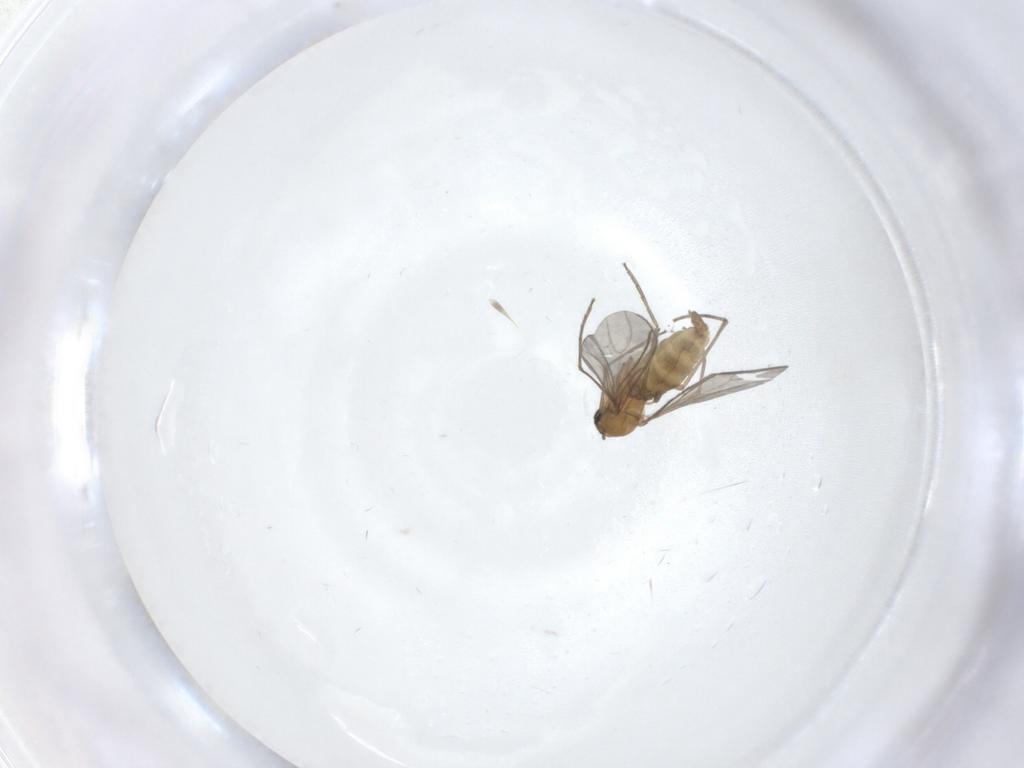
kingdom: Animalia
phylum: Arthropoda
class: Insecta
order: Diptera
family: Sciaridae
